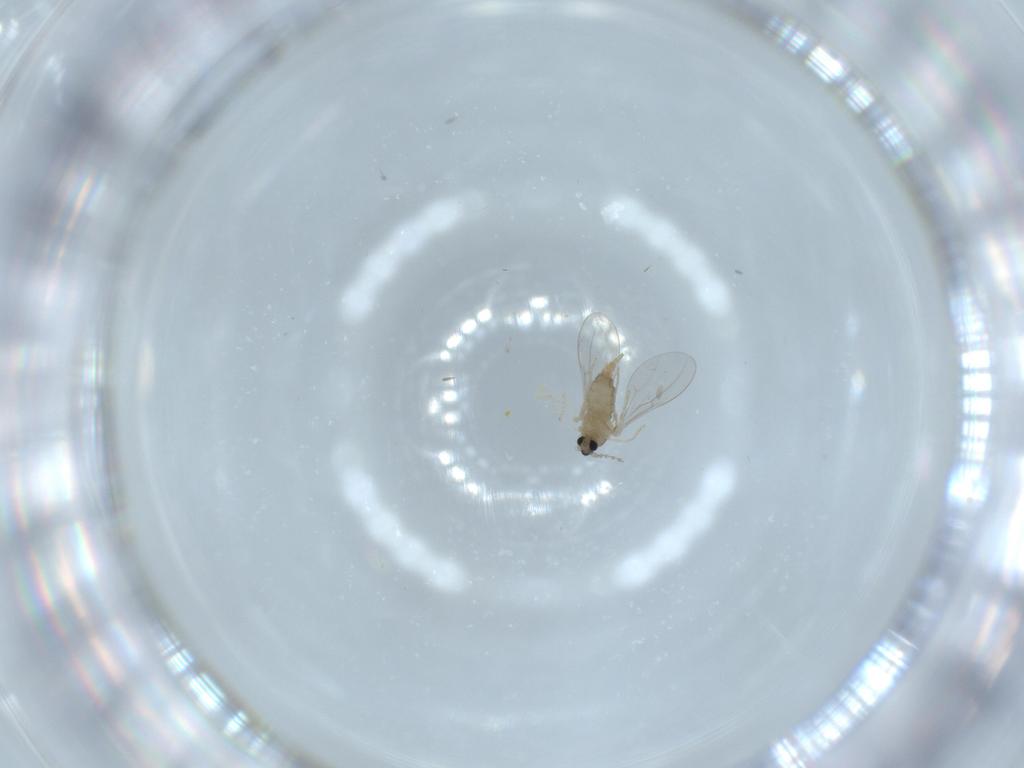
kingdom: Animalia
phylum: Arthropoda
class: Insecta
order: Diptera
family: Cecidomyiidae
